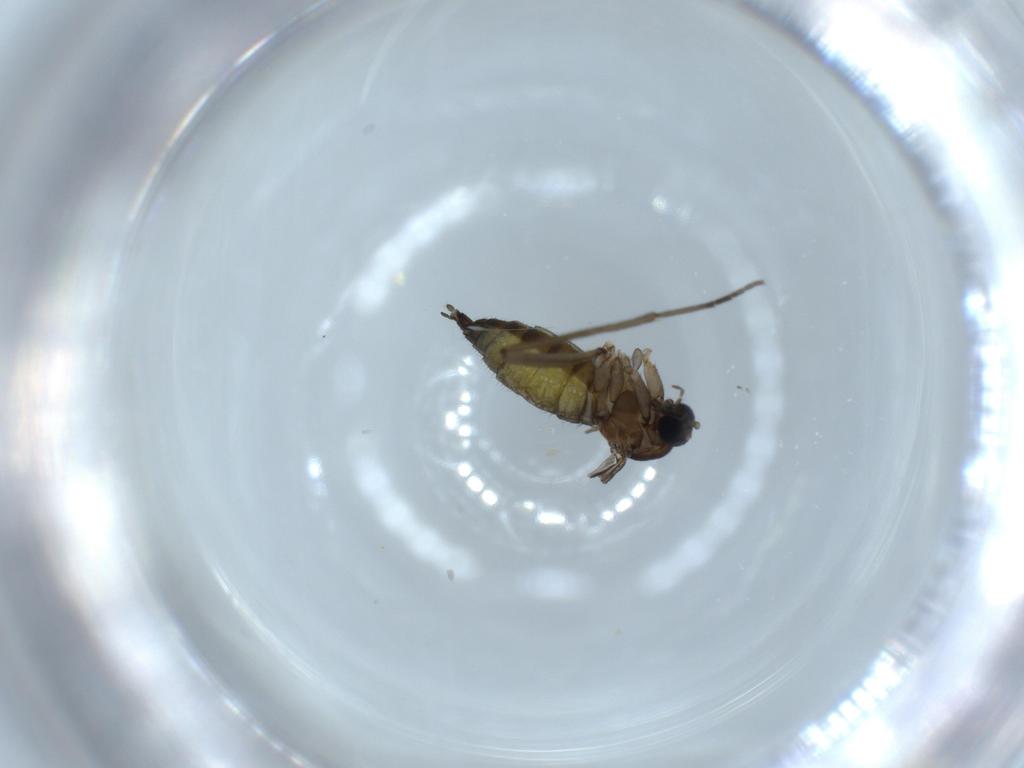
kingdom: Animalia
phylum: Arthropoda
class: Insecta
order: Diptera
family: Sciaridae
